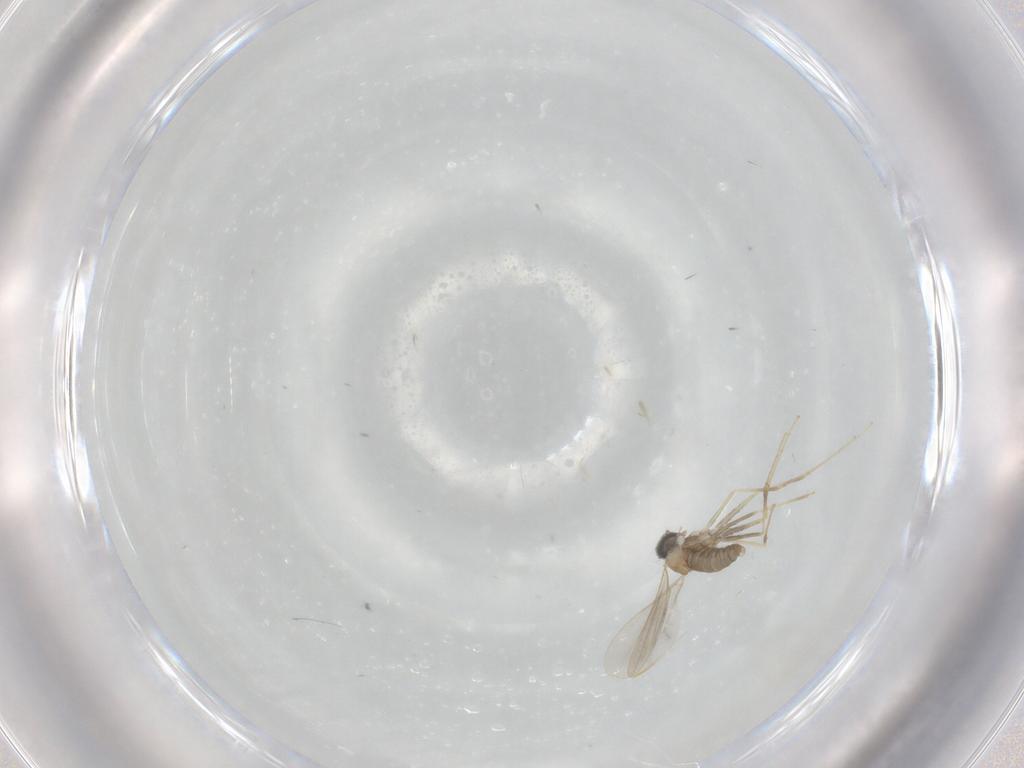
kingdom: Animalia
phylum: Arthropoda
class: Insecta
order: Diptera
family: Cecidomyiidae
